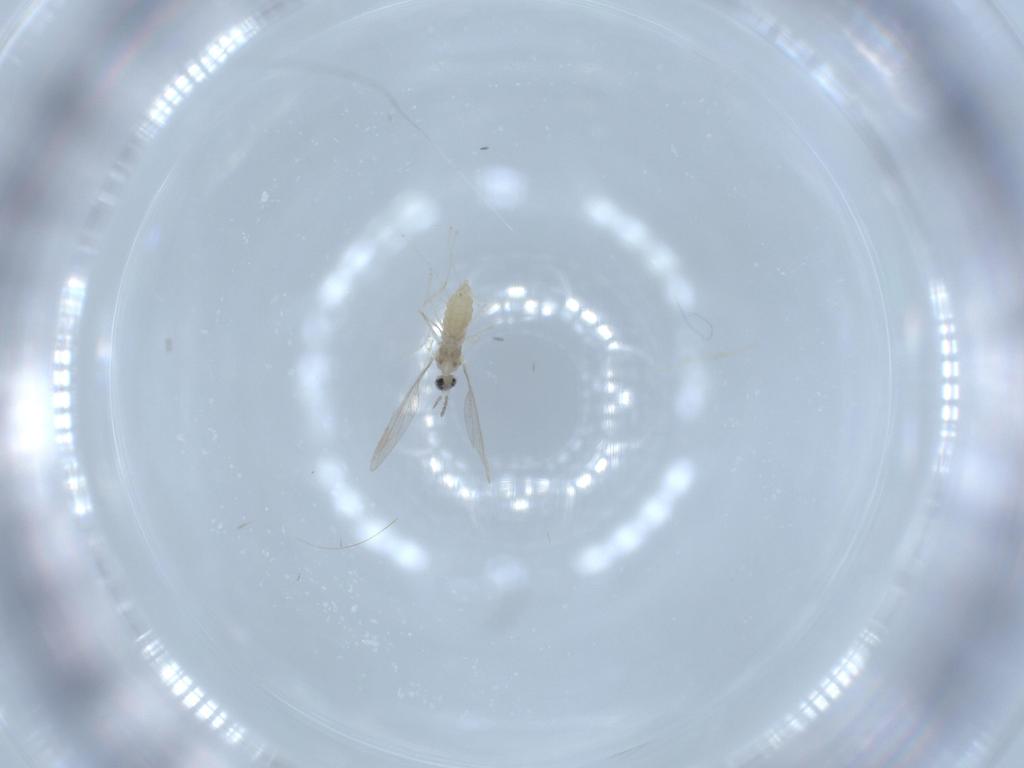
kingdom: Animalia
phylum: Arthropoda
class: Insecta
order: Diptera
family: Cecidomyiidae
